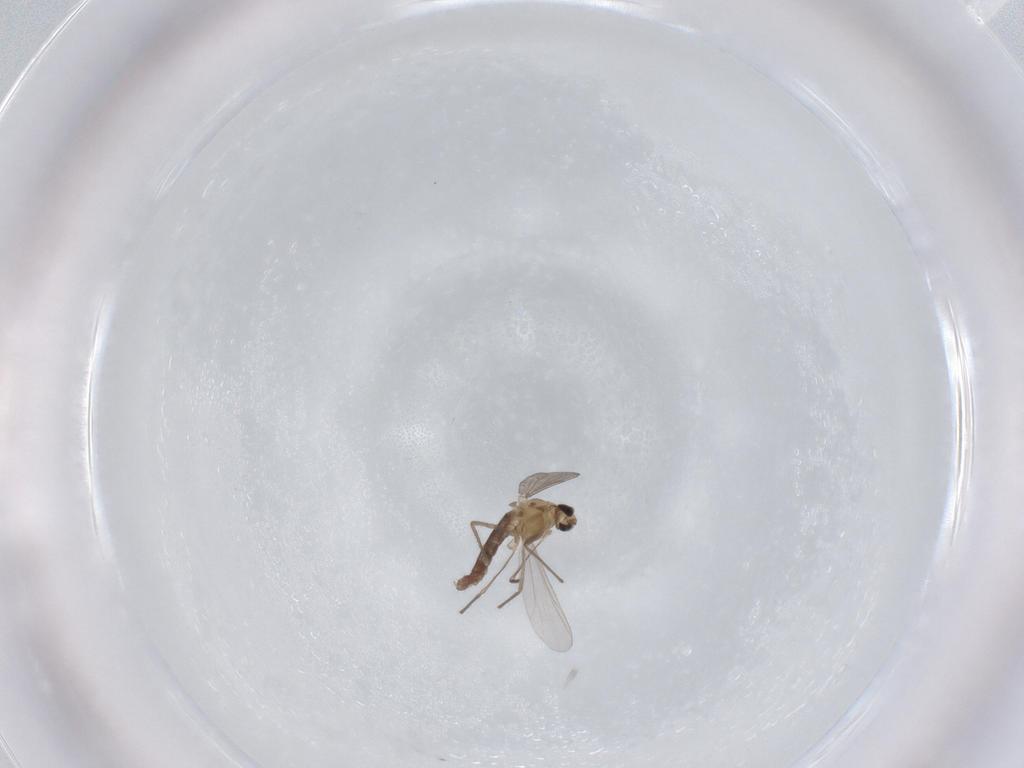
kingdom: Animalia
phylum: Arthropoda
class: Insecta
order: Diptera
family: Chironomidae
